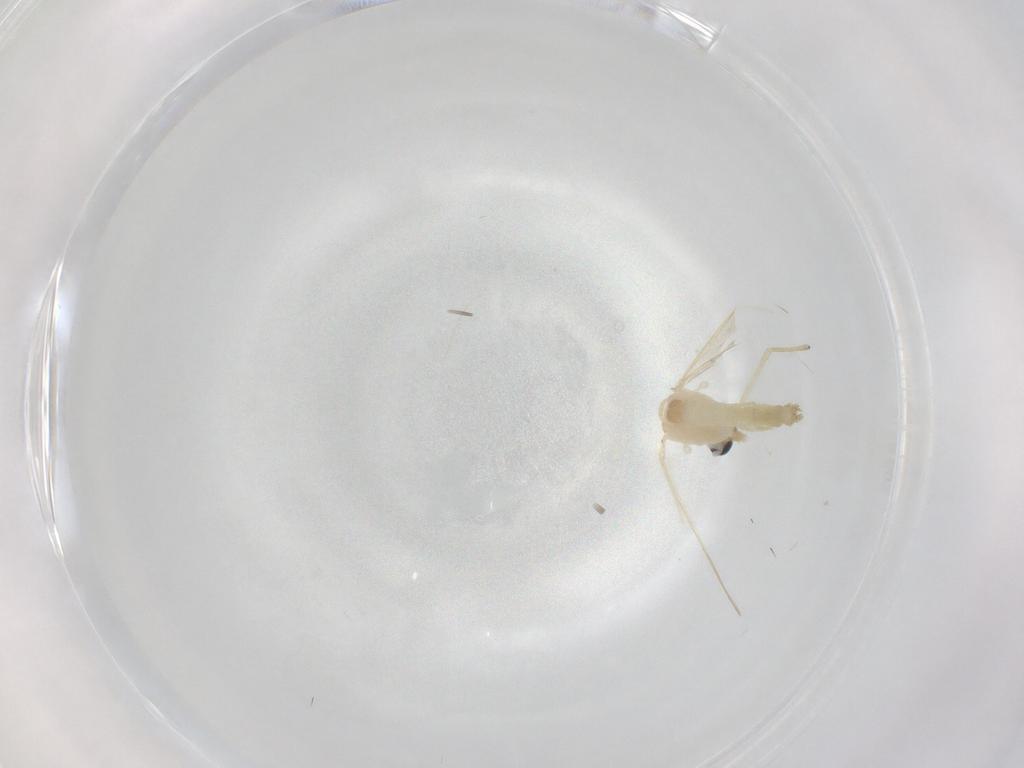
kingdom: Animalia
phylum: Arthropoda
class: Insecta
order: Diptera
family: Chironomidae
